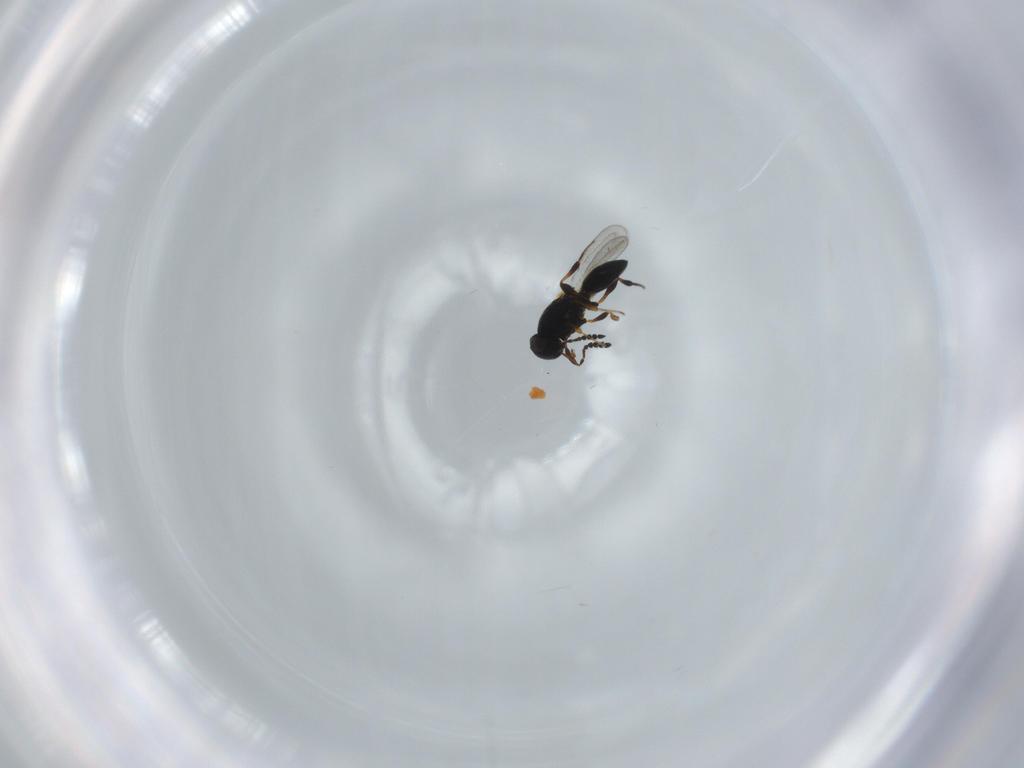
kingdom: Animalia
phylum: Arthropoda
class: Insecta
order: Hymenoptera
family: Platygastridae
